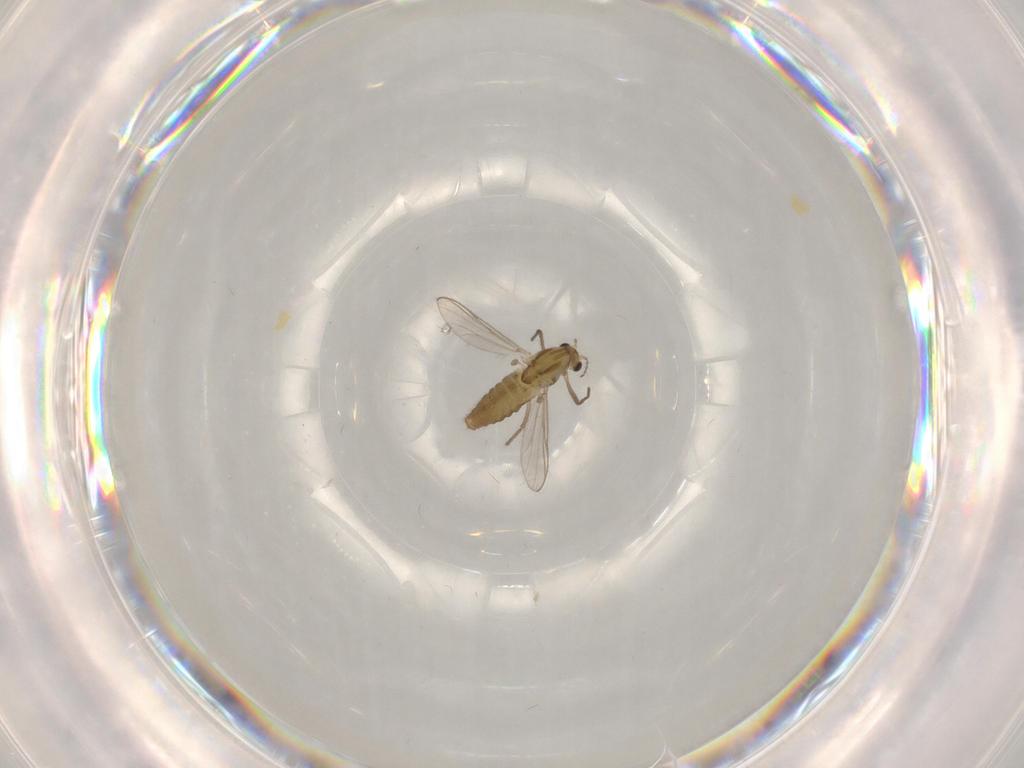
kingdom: Animalia
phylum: Arthropoda
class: Insecta
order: Diptera
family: Chironomidae
